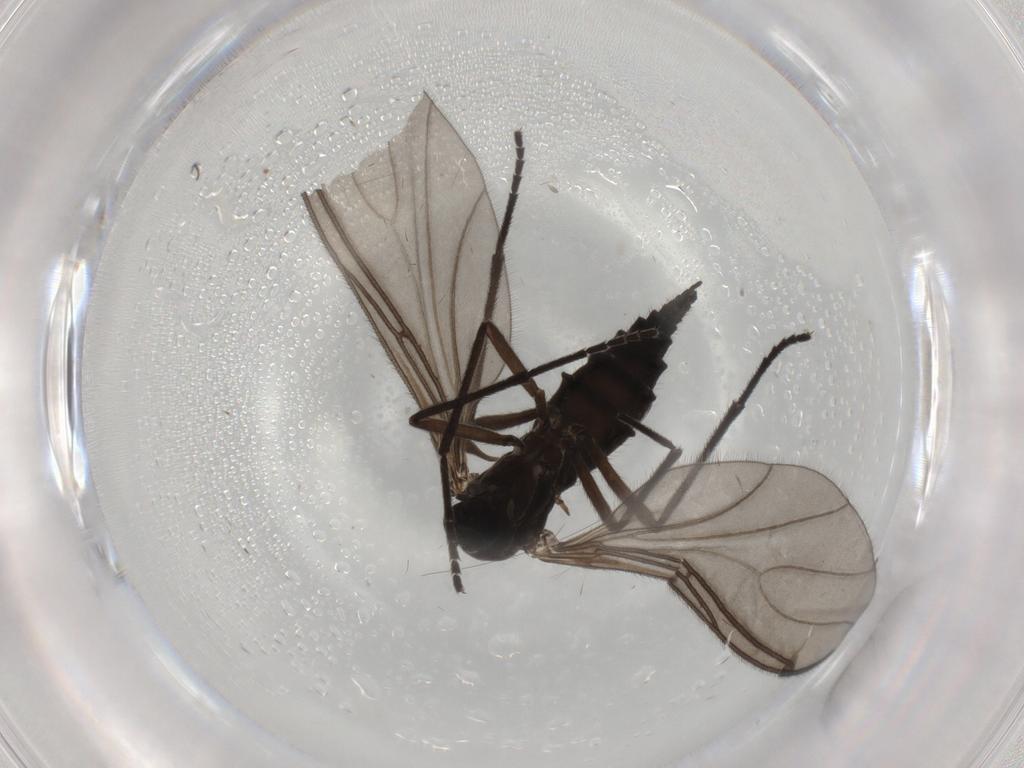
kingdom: Animalia
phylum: Arthropoda
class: Insecta
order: Diptera
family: Sciaridae
